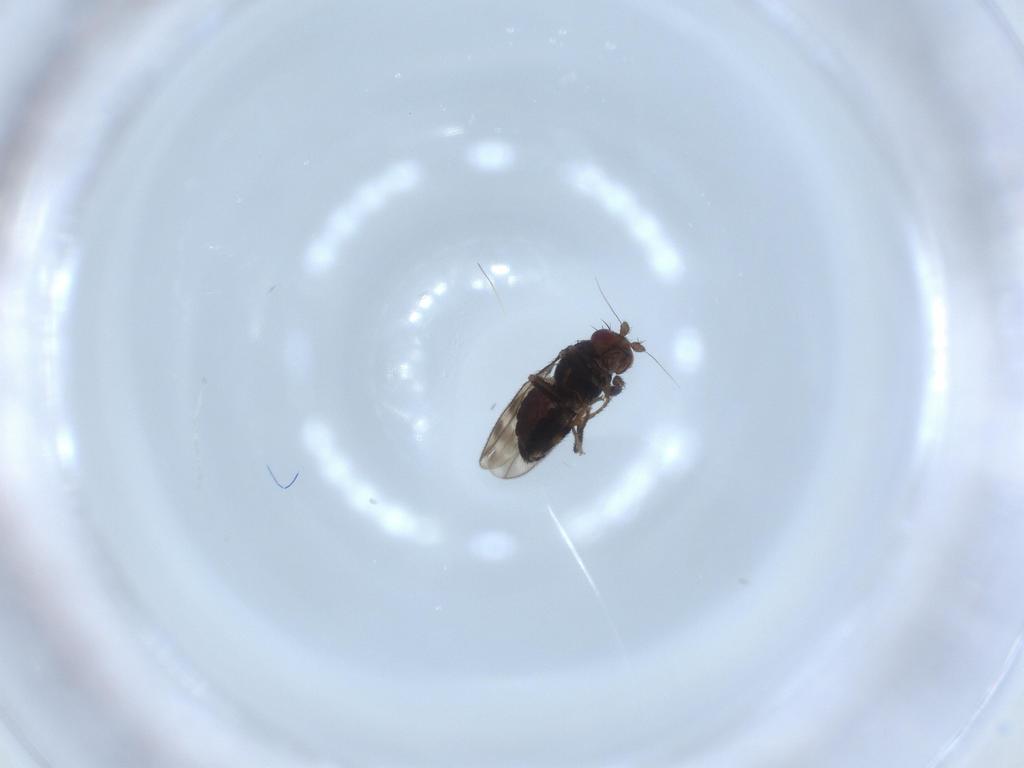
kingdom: Animalia
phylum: Arthropoda
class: Insecta
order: Diptera
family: Sphaeroceridae
